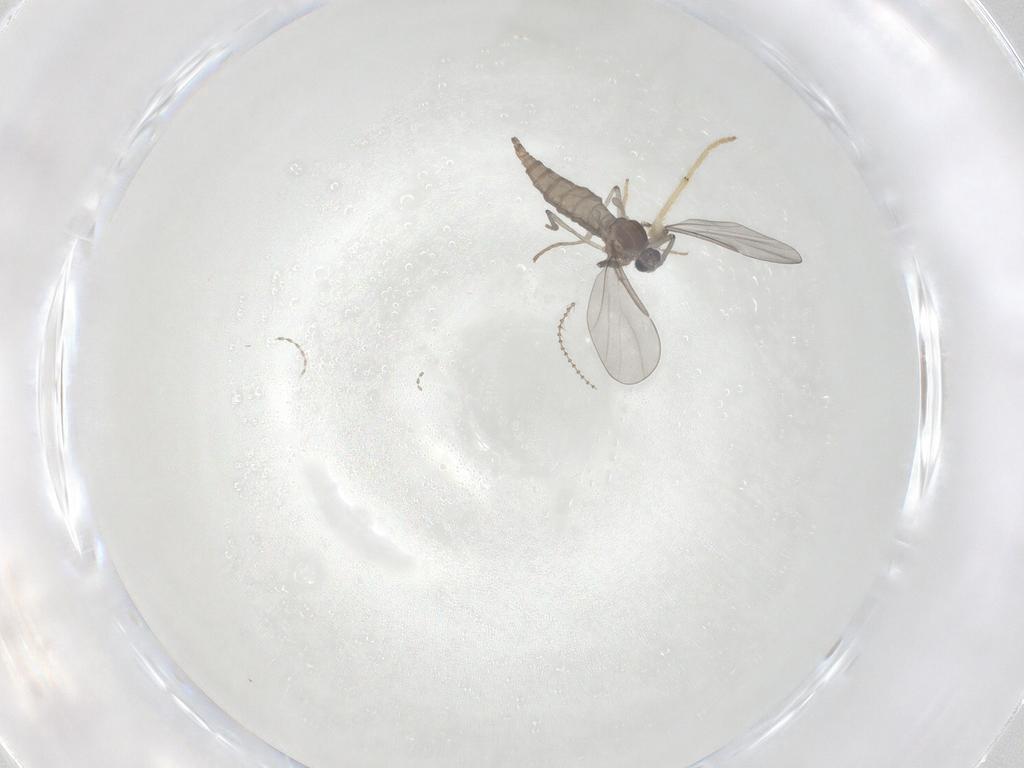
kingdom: Animalia
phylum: Arthropoda
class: Insecta
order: Diptera
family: Cecidomyiidae
